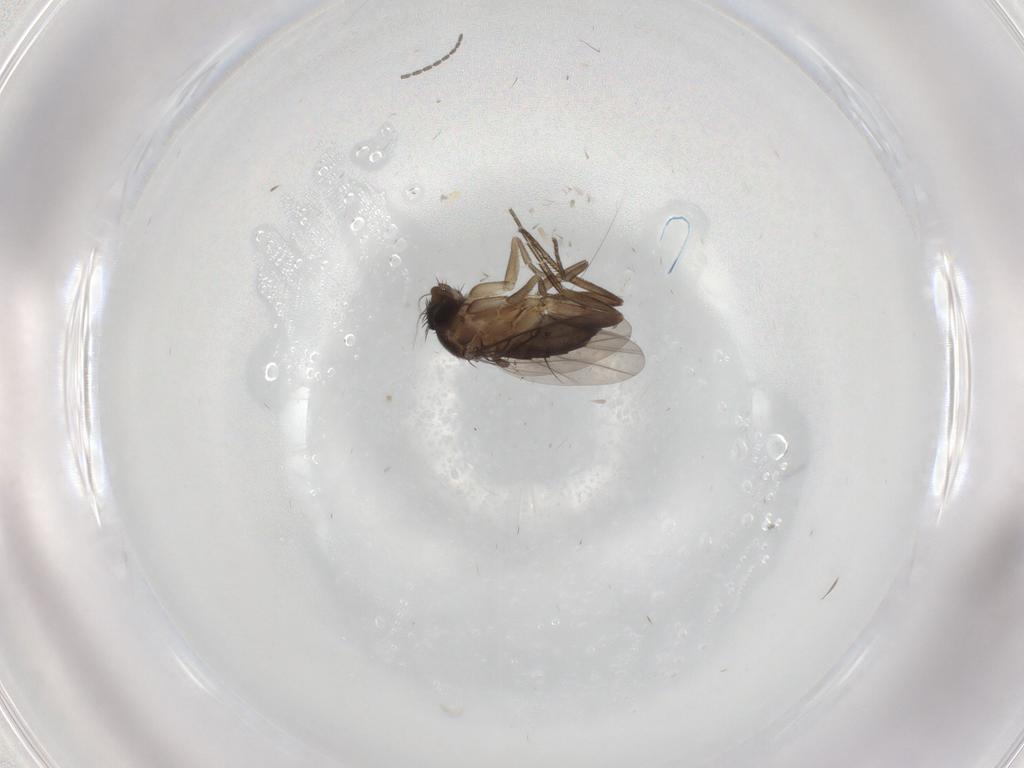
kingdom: Animalia
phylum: Arthropoda
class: Insecta
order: Diptera
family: Cecidomyiidae
